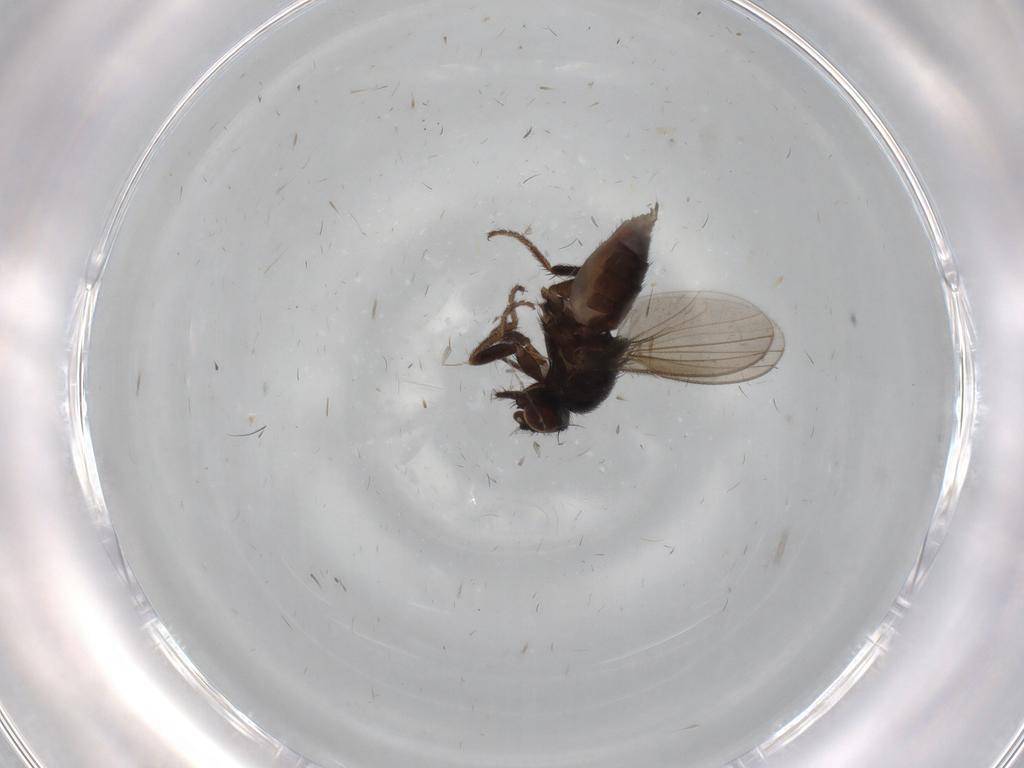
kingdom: Animalia
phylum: Arthropoda
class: Insecta
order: Diptera
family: Milichiidae
